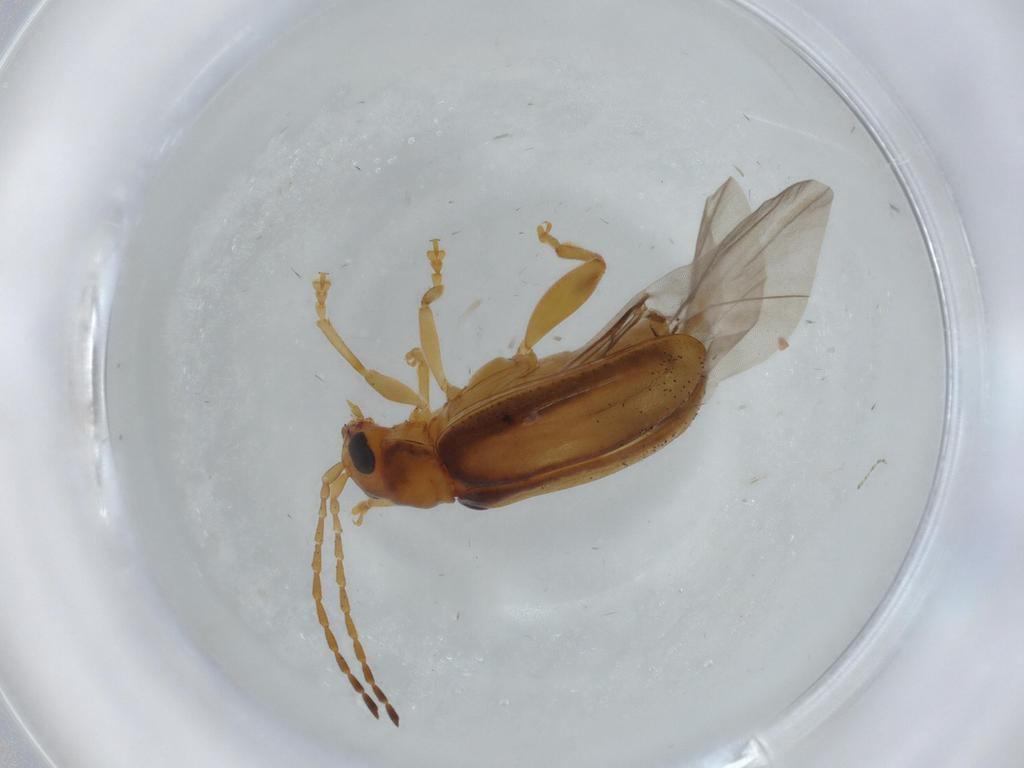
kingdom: Animalia
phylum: Arthropoda
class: Insecta
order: Coleoptera
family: Chrysomelidae
